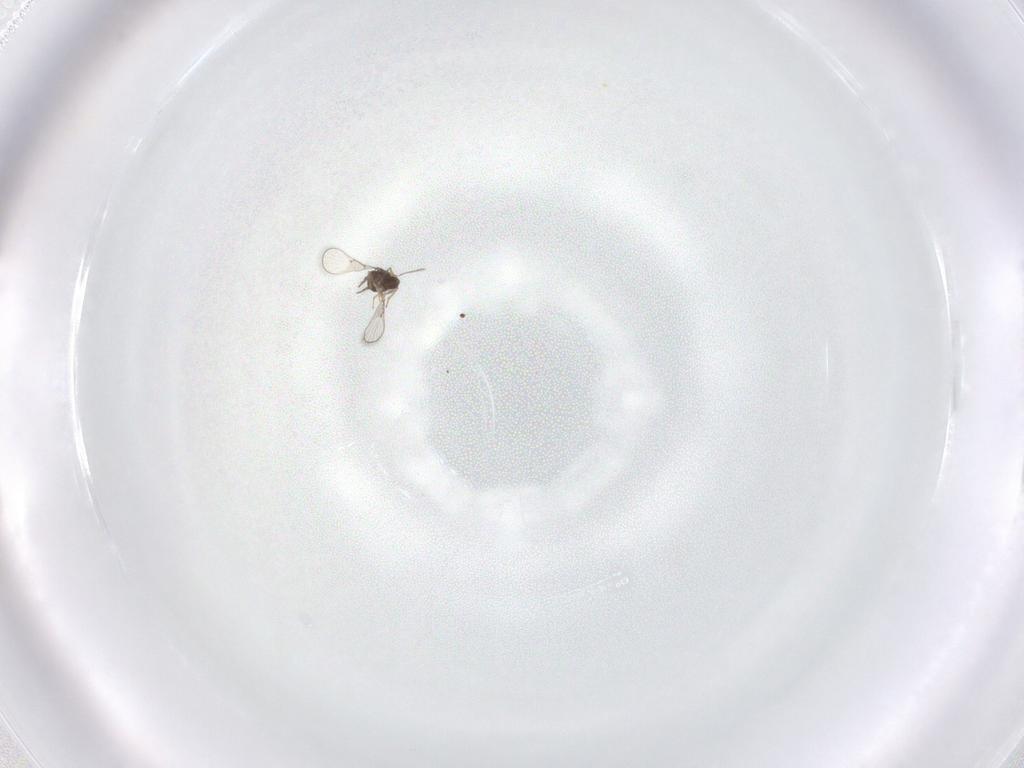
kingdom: Animalia
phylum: Arthropoda
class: Insecta
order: Hymenoptera
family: Trichogrammatidae
